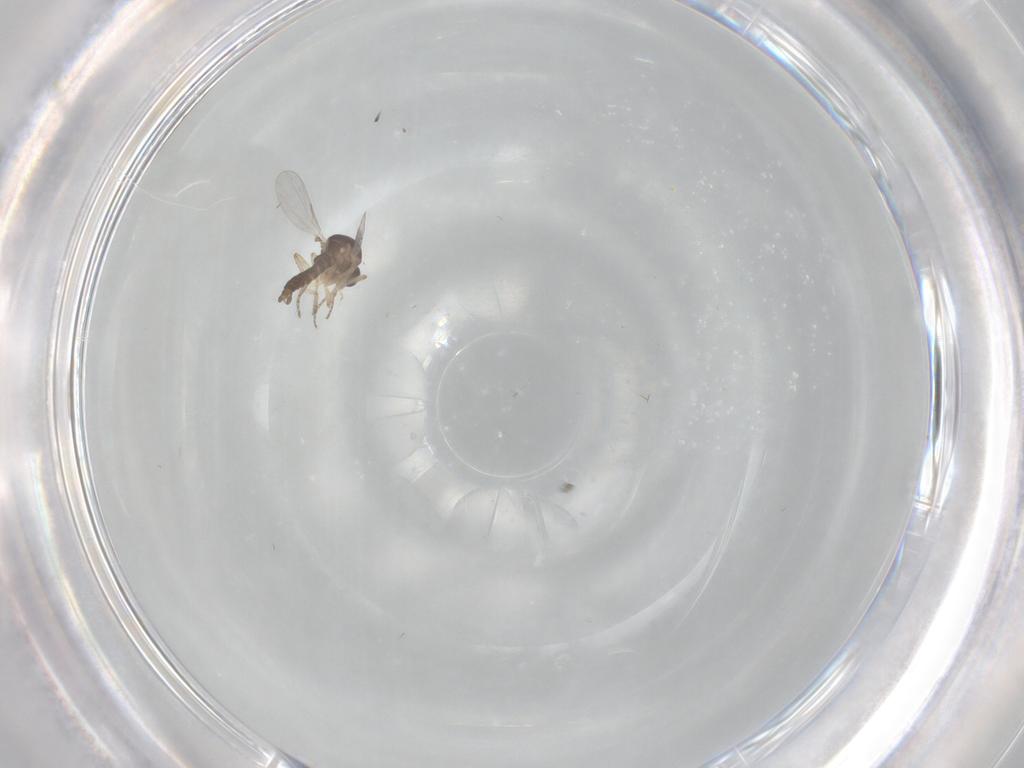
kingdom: Animalia
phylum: Arthropoda
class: Insecta
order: Diptera
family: Ceratopogonidae
